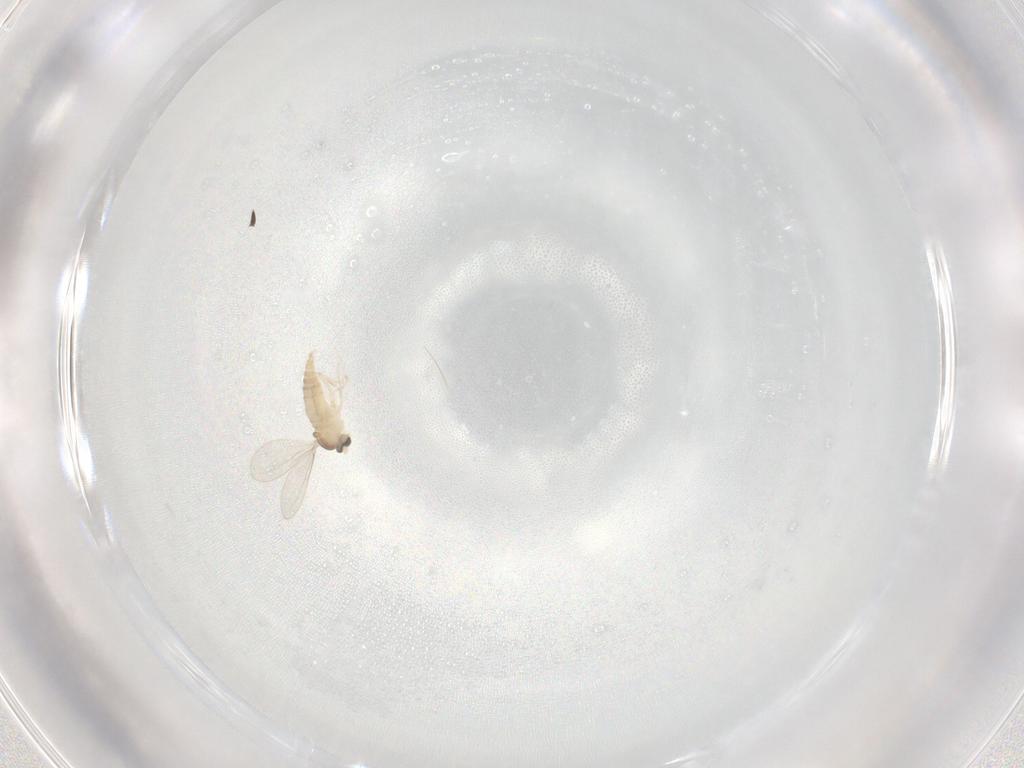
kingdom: Animalia
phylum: Arthropoda
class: Insecta
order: Diptera
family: Cecidomyiidae
